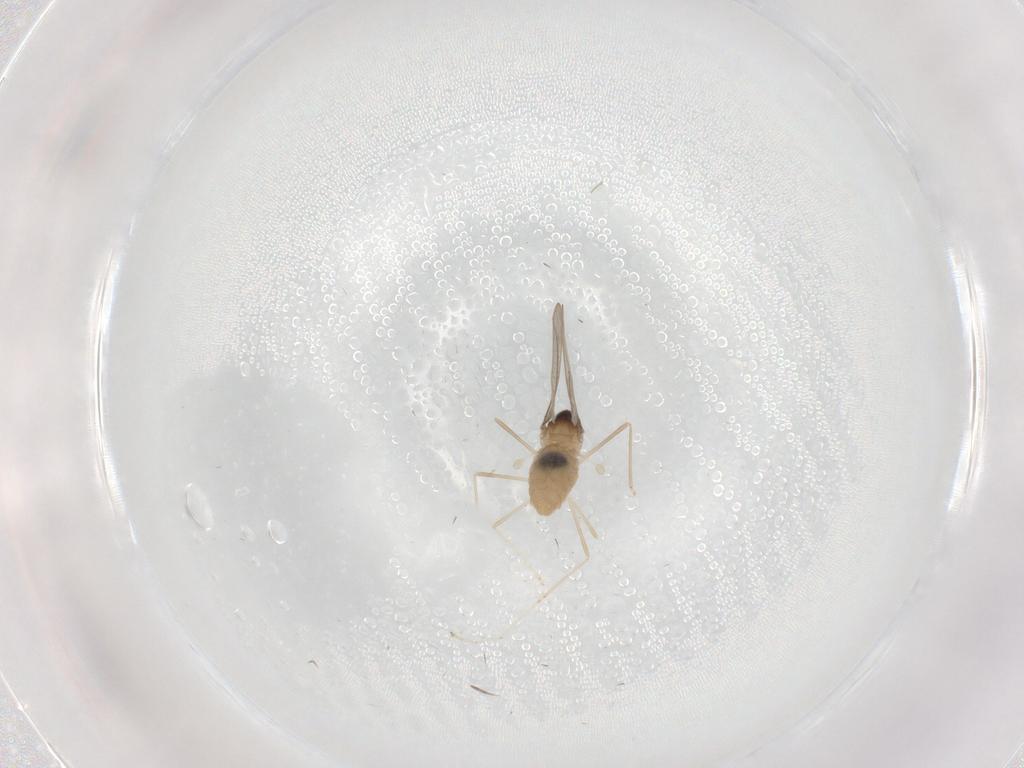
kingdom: Animalia
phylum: Arthropoda
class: Insecta
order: Diptera
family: Cecidomyiidae
